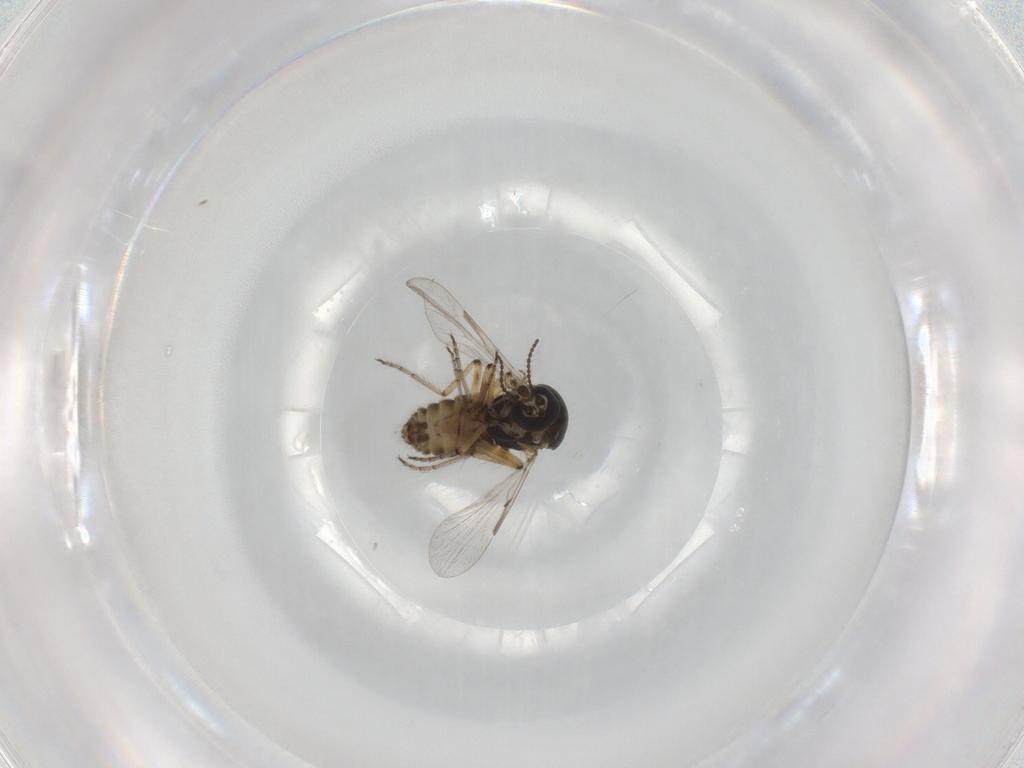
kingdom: Animalia
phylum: Arthropoda
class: Insecta
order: Diptera
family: Ceratopogonidae
